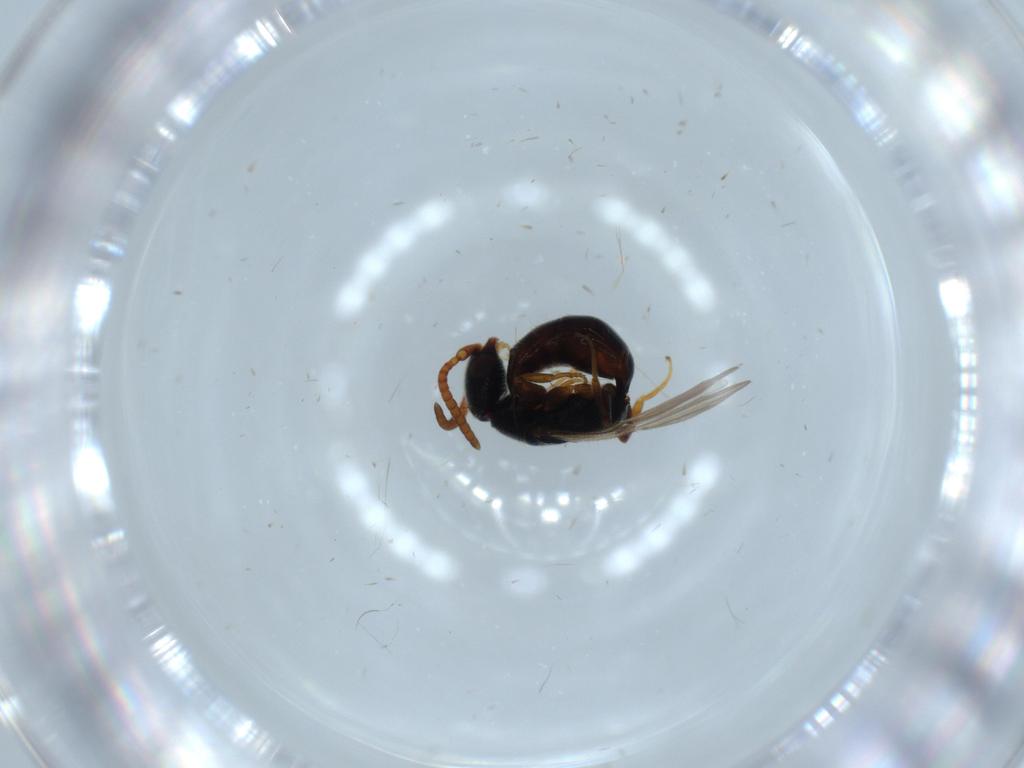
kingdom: Animalia
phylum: Arthropoda
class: Insecta
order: Hymenoptera
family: Bethylidae
